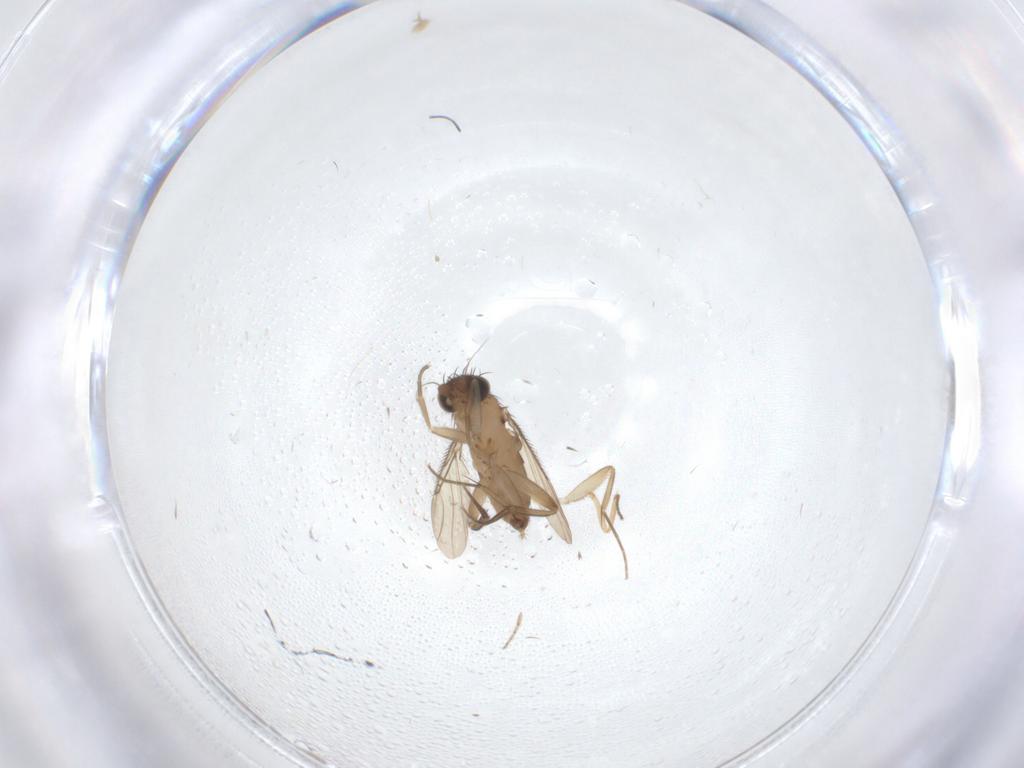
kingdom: Animalia
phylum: Arthropoda
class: Insecta
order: Diptera
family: Phoridae
